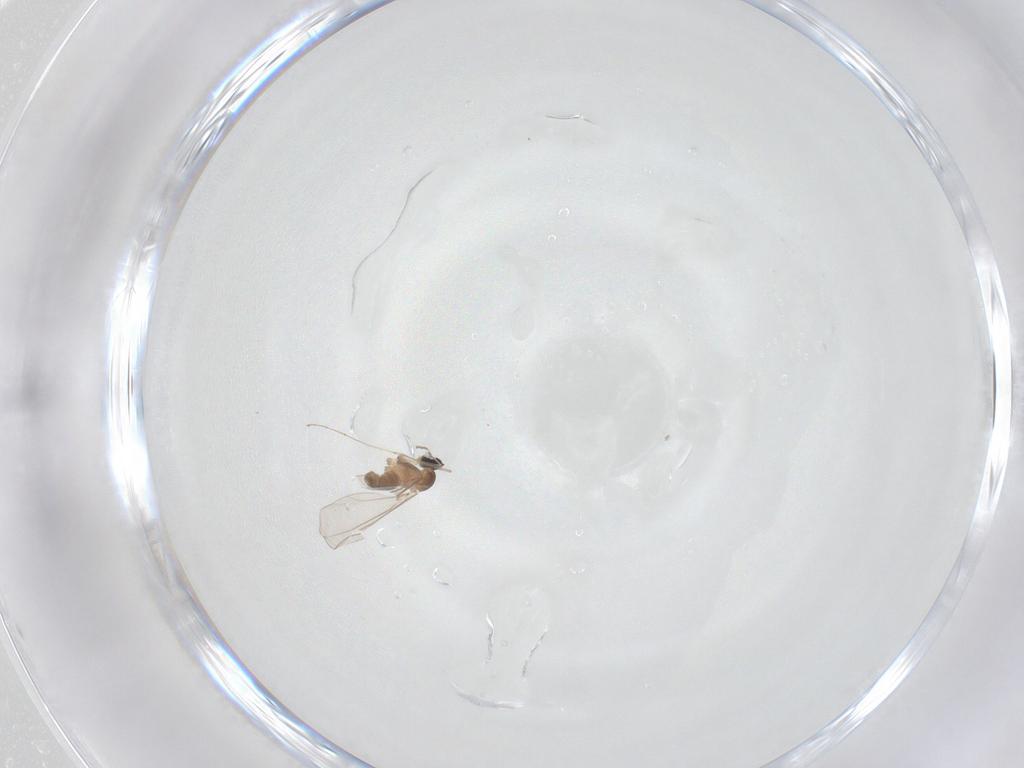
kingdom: Animalia
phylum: Arthropoda
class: Insecta
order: Diptera
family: Cecidomyiidae
